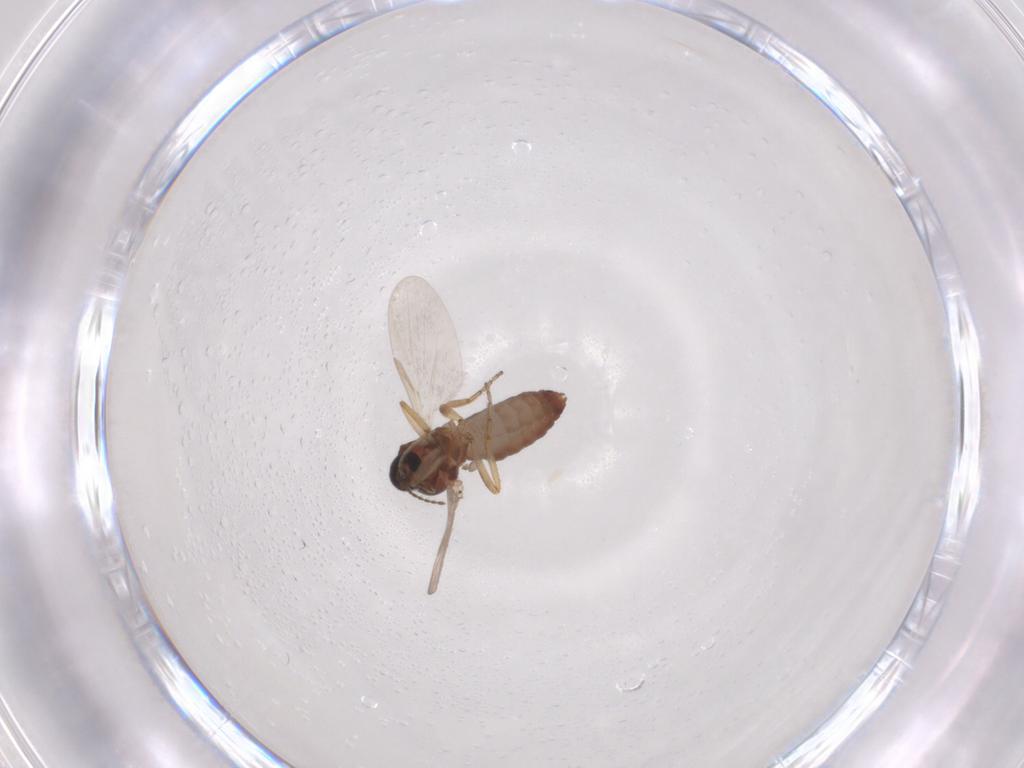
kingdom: Animalia
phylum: Arthropoda
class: Insecta
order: Diptera
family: Ceratopogonidae
